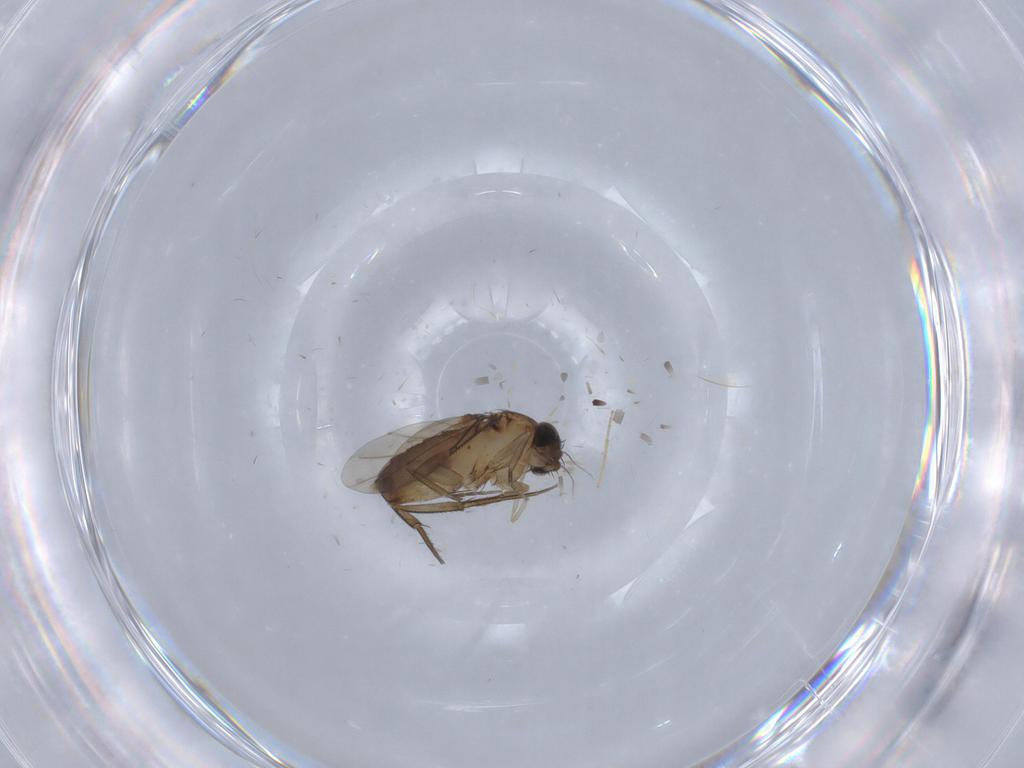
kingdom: Animalia
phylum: Arthropoda
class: Insecta
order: Diptera
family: Phoridae
